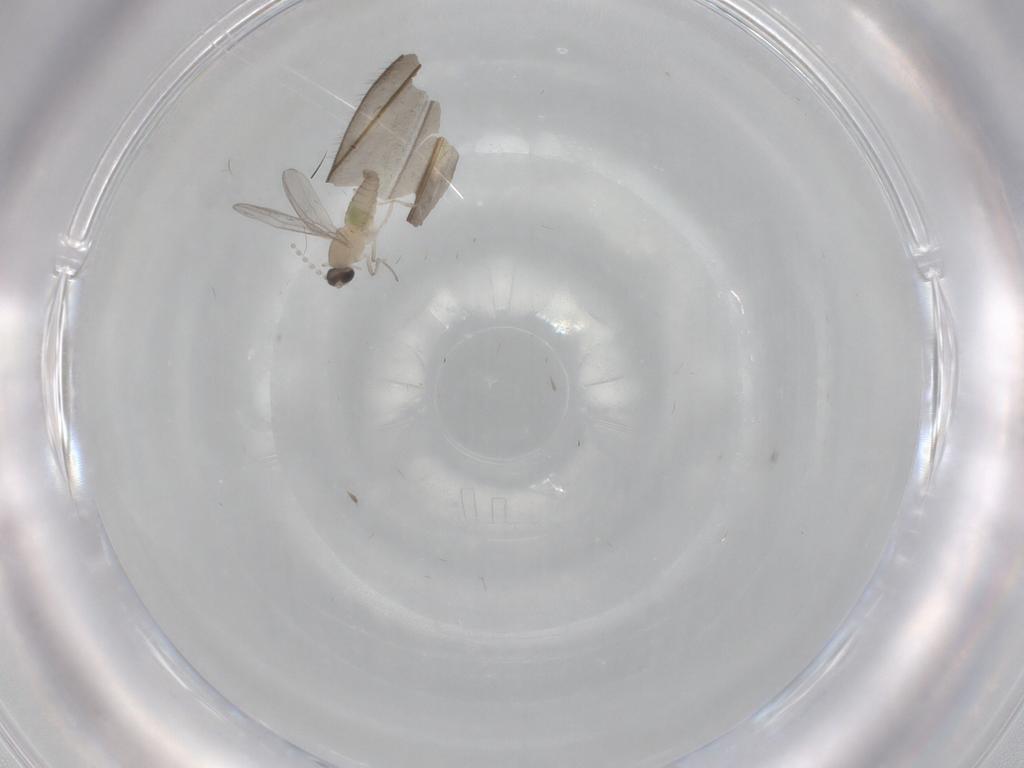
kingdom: Animalia
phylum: Arthropoda
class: Insecta
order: Diptera
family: Cecidomyiidae
